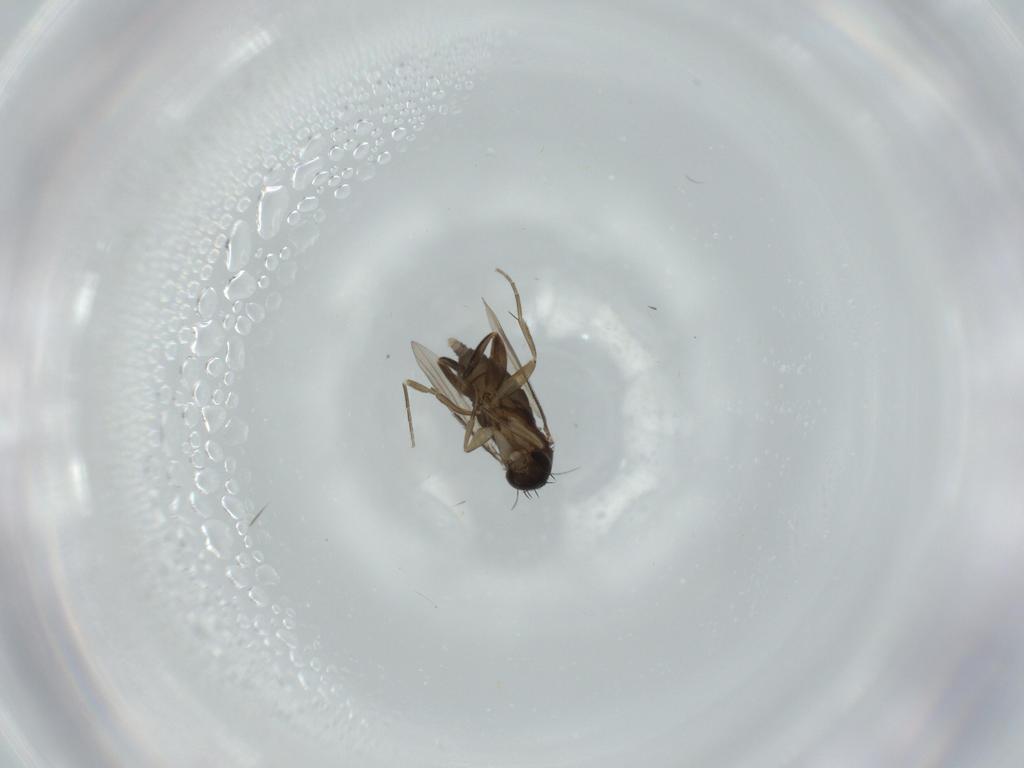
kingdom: Animalia
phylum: Arthropoda
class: Insecta
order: Diptera
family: Phoridae
